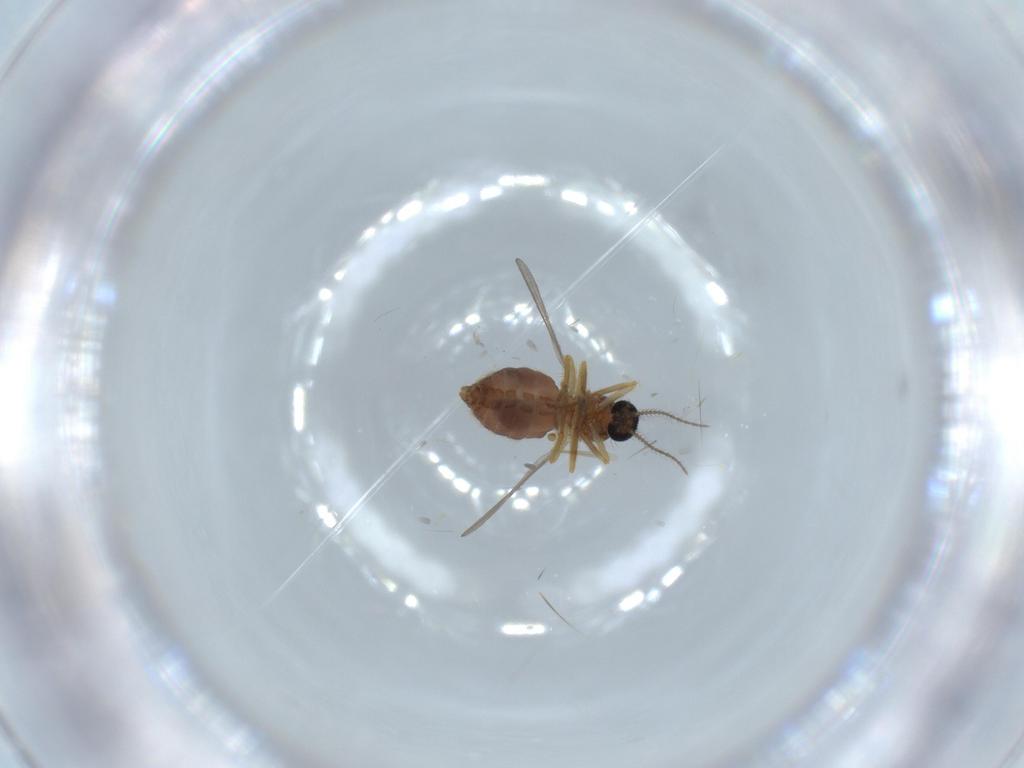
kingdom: Animalia
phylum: Arthropoda
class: Insecta
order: Diptera
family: Ceratopogonidae
